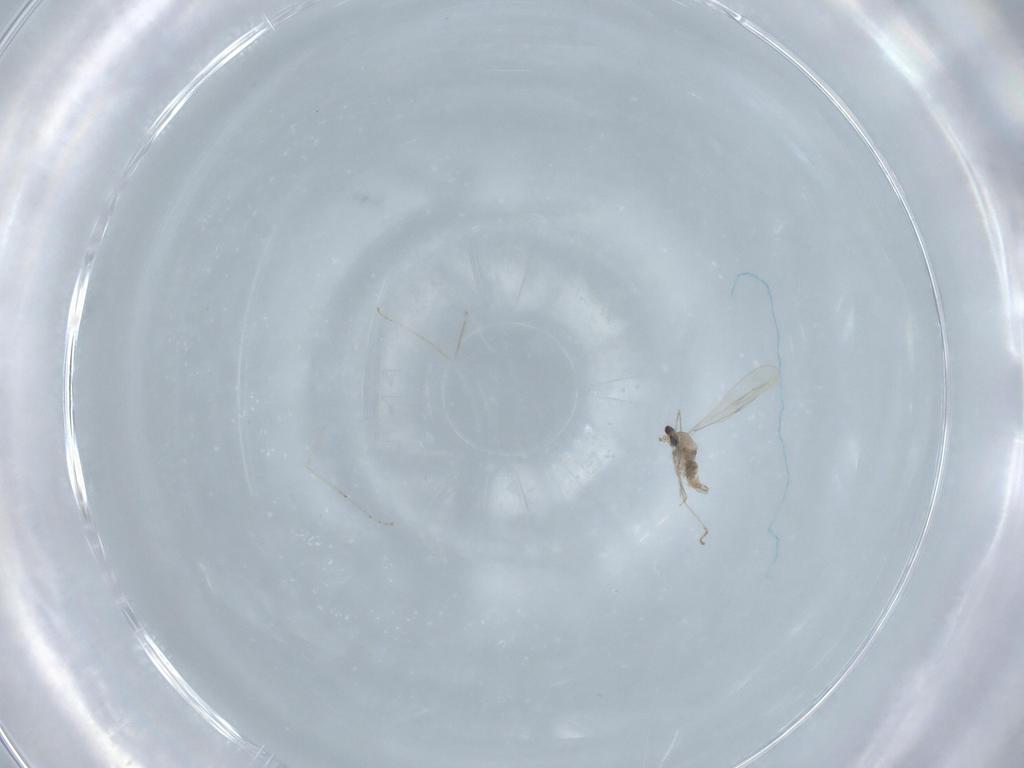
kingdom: Animalia
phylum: Arthropoda
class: Insecta
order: Diptera
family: Cecidomyiidae
